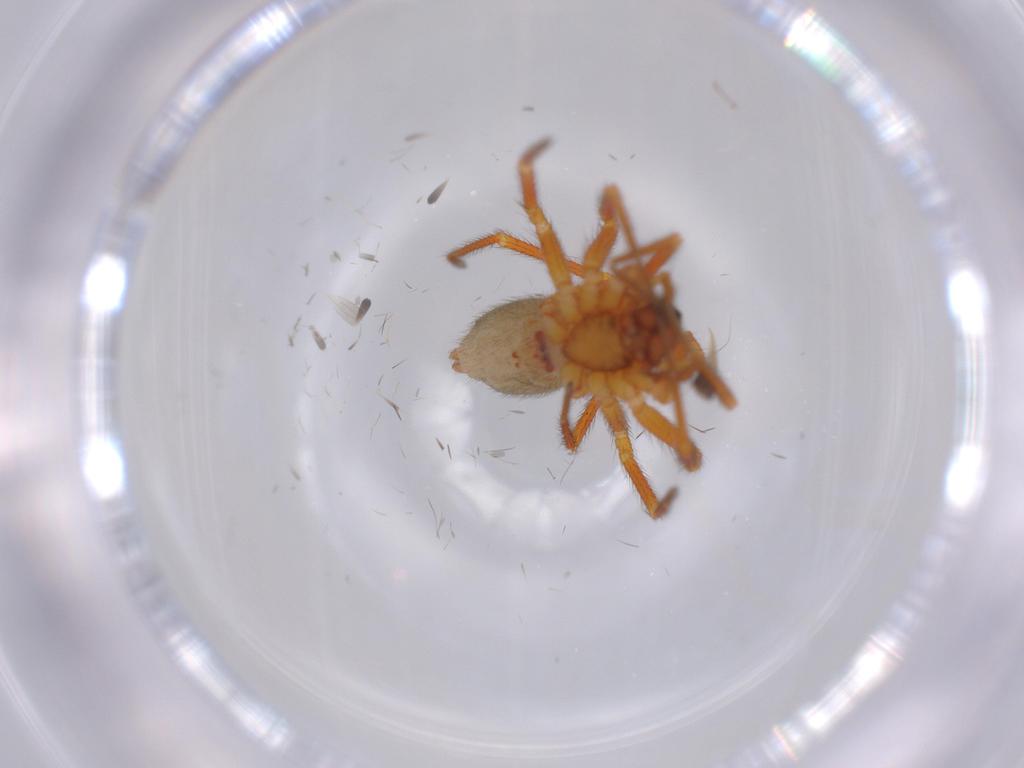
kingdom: Animalia
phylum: Arthropoda
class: Arachnida
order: Araneae
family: Linyphiidae
